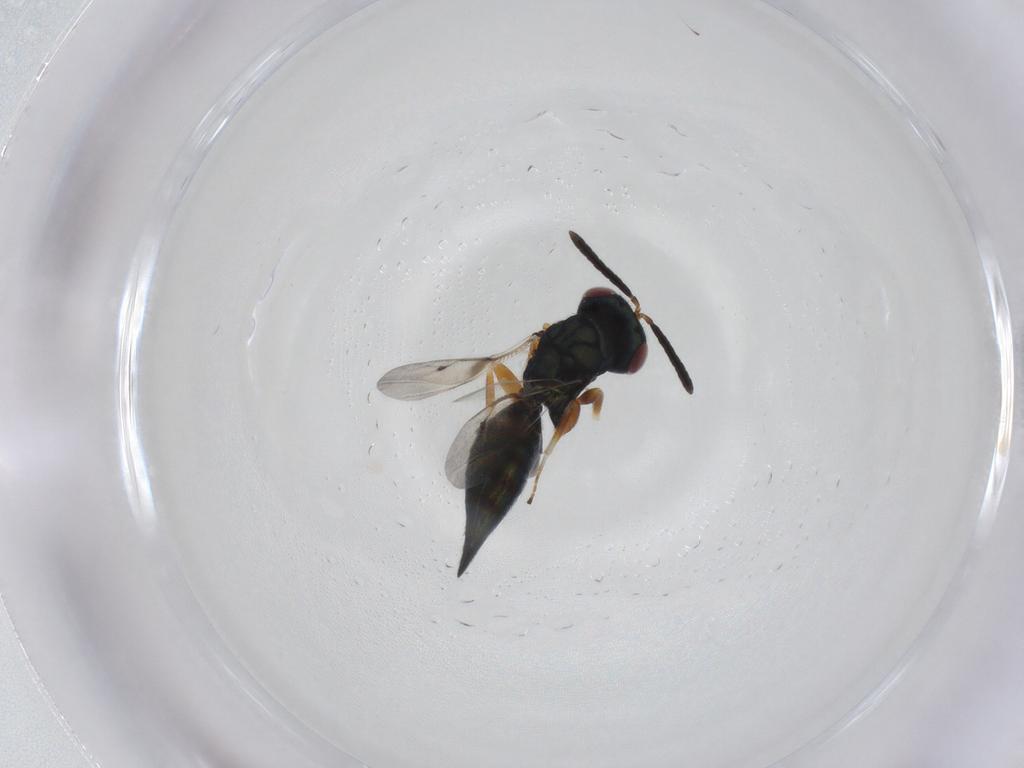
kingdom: Animalia
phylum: Arthropoda
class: Insecta
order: Hymenoptera
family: Pteromalidae
